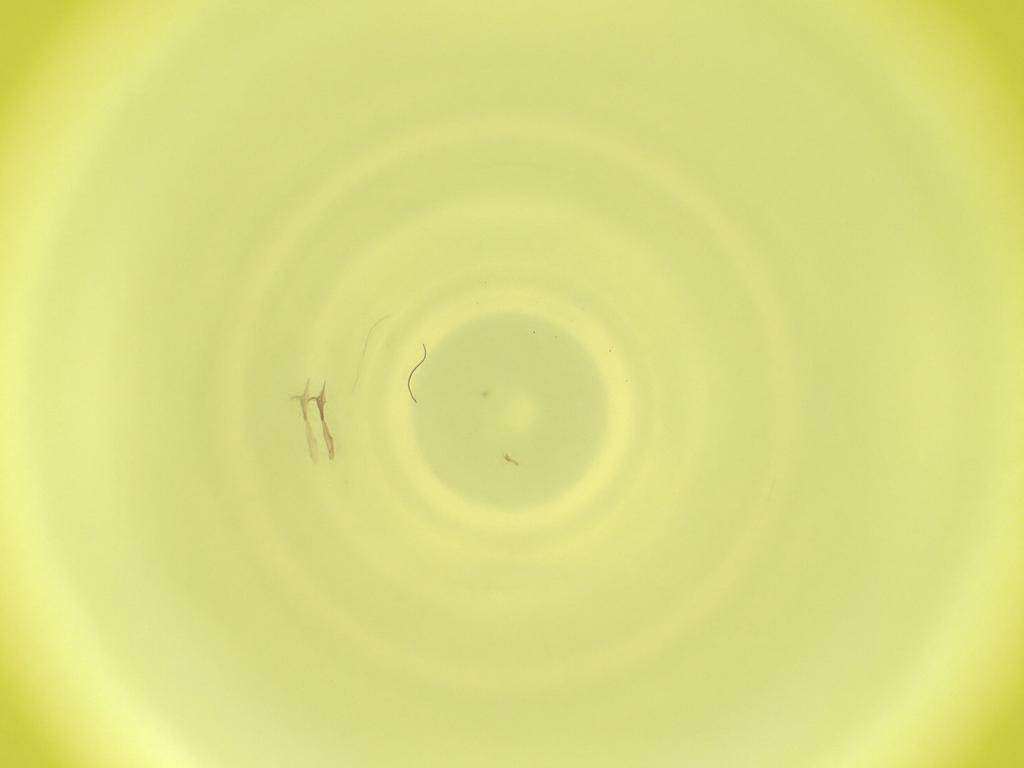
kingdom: Animalia
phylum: Arthropoda
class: Insecta
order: Diptera
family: Cecidomyiidae
